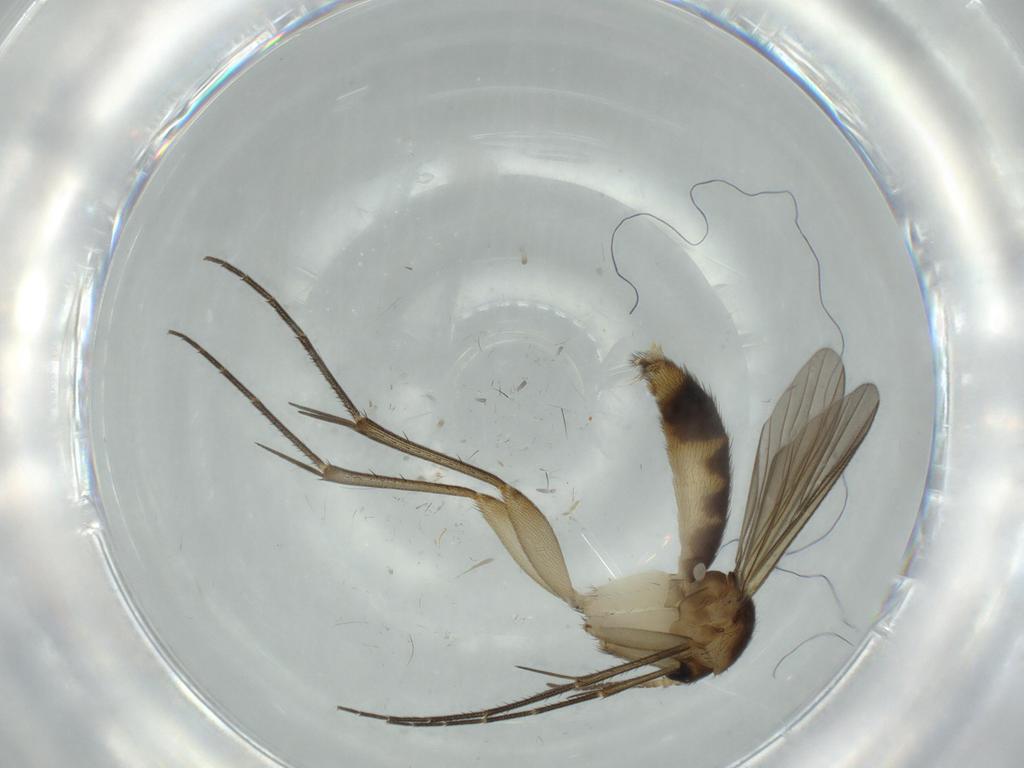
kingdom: Animalia
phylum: Arthropoda
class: Insecta
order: Diptera
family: Mycetophilidae
